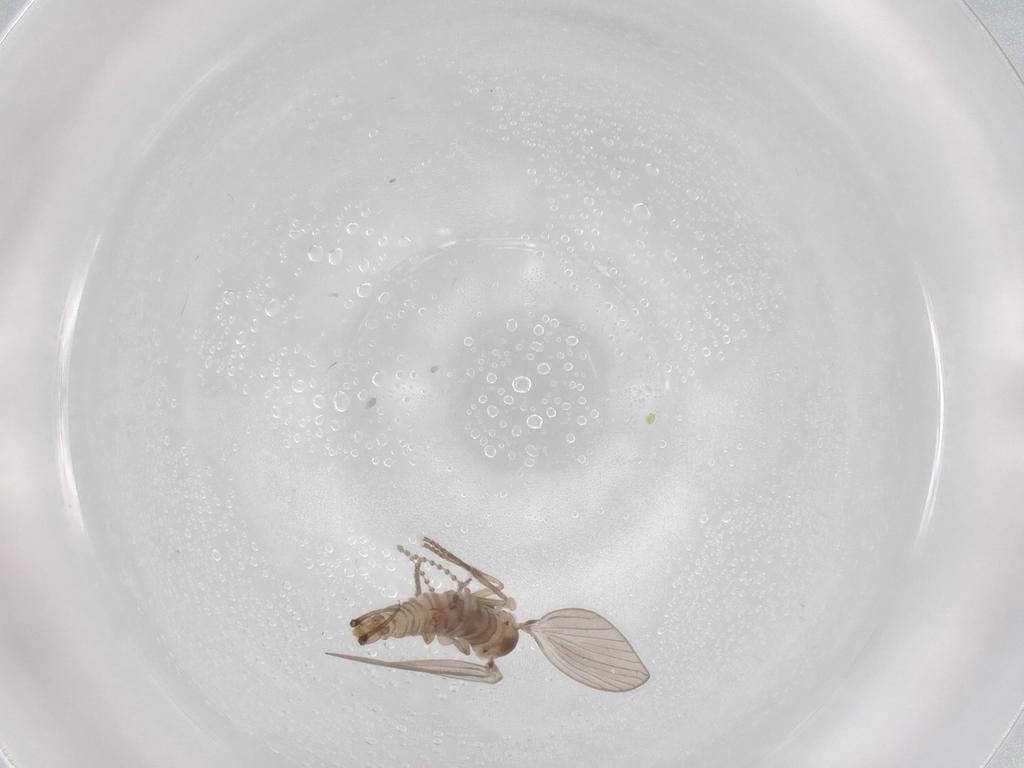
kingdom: Animalia
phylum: Arthropoda
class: Insecta
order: Diptera
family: Psychodidae
